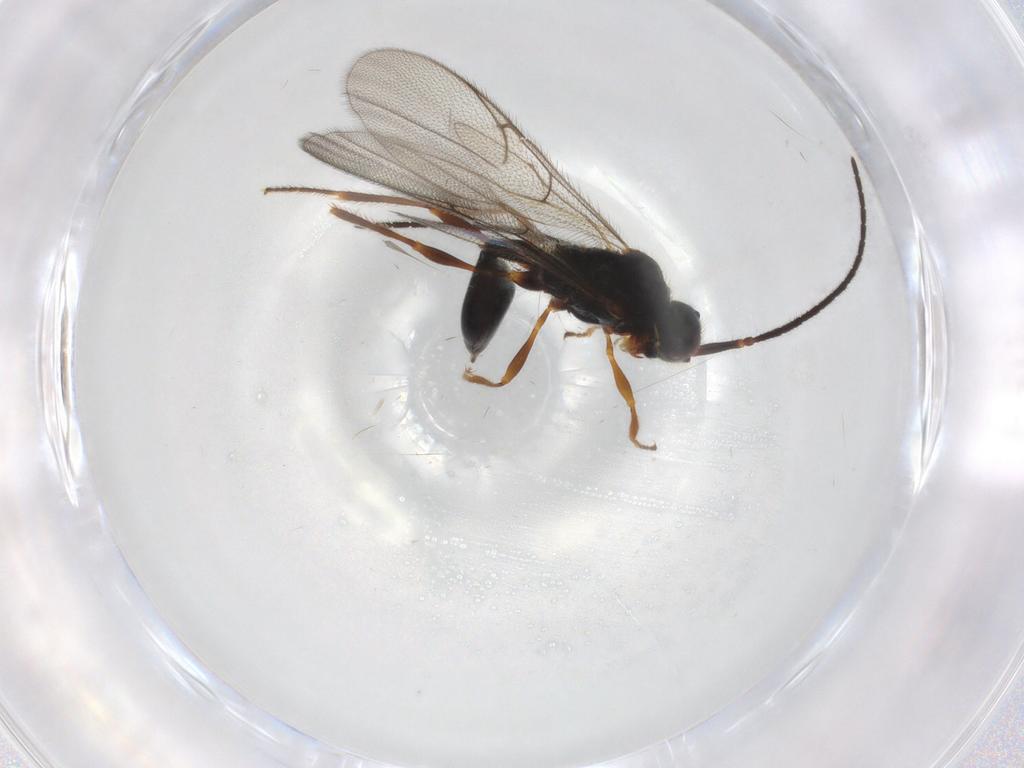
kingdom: Animalia
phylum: Arthropoda
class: Insecta
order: Hymenoptera
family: Diapriidae
